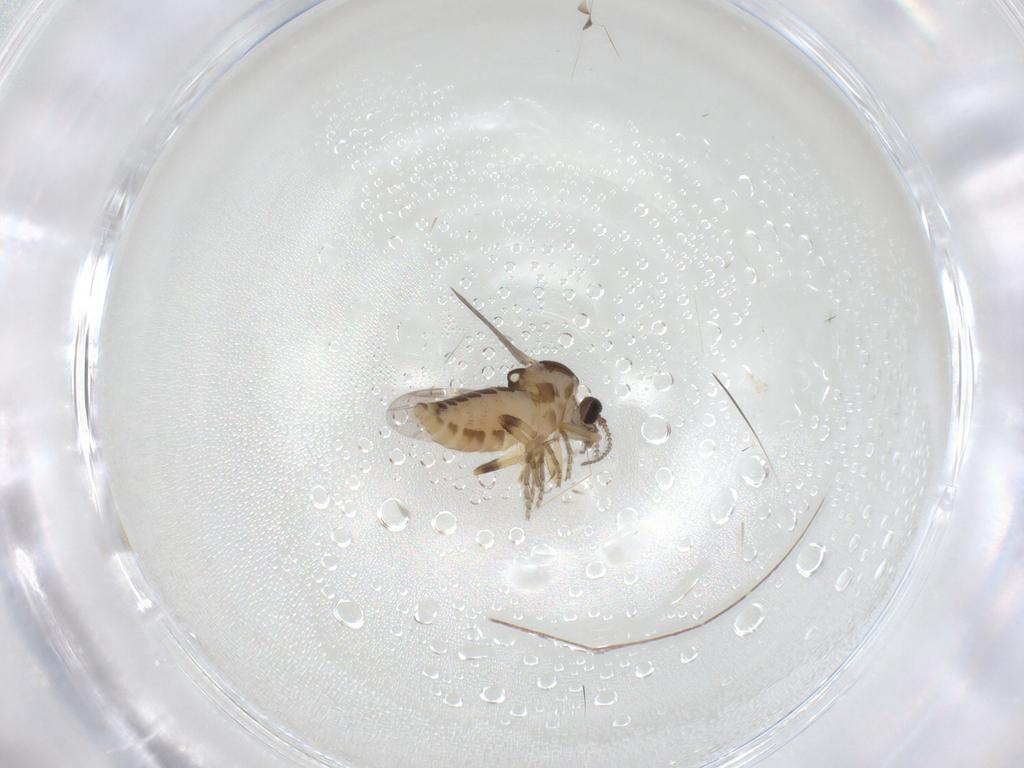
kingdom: Animalia
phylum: Arthropoda
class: Insecta
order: Diptera
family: Ceratopogonidae
